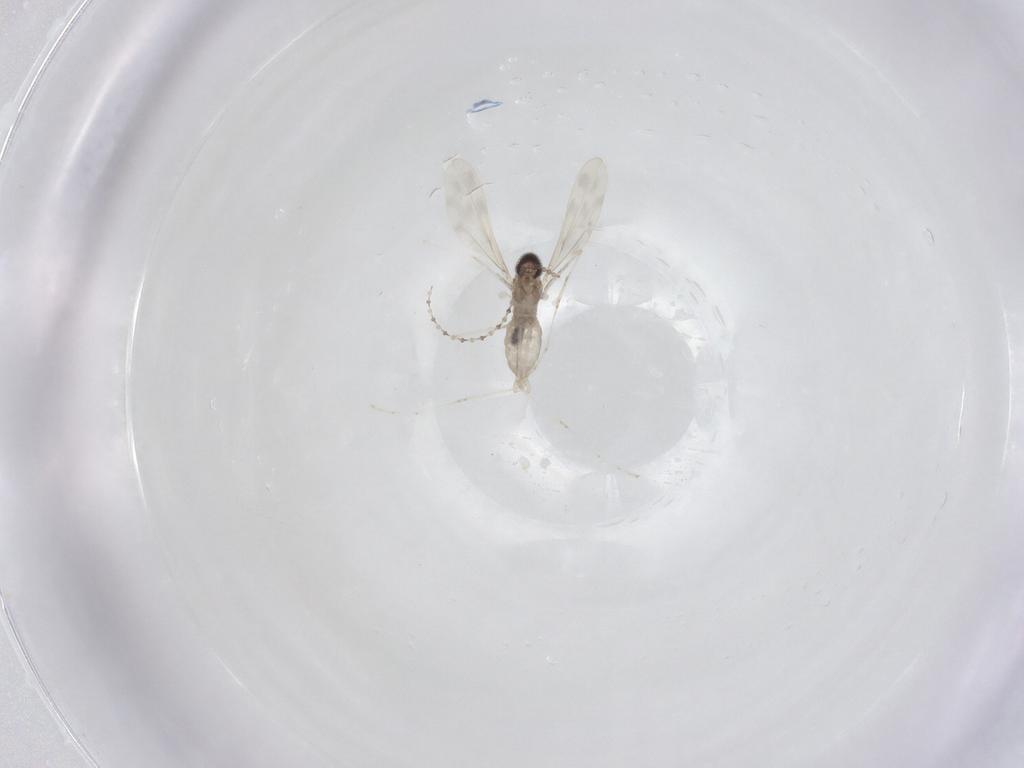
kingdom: Animalia
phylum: Arthropoda
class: Insecta
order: Diptera
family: Cecidomyiidae
